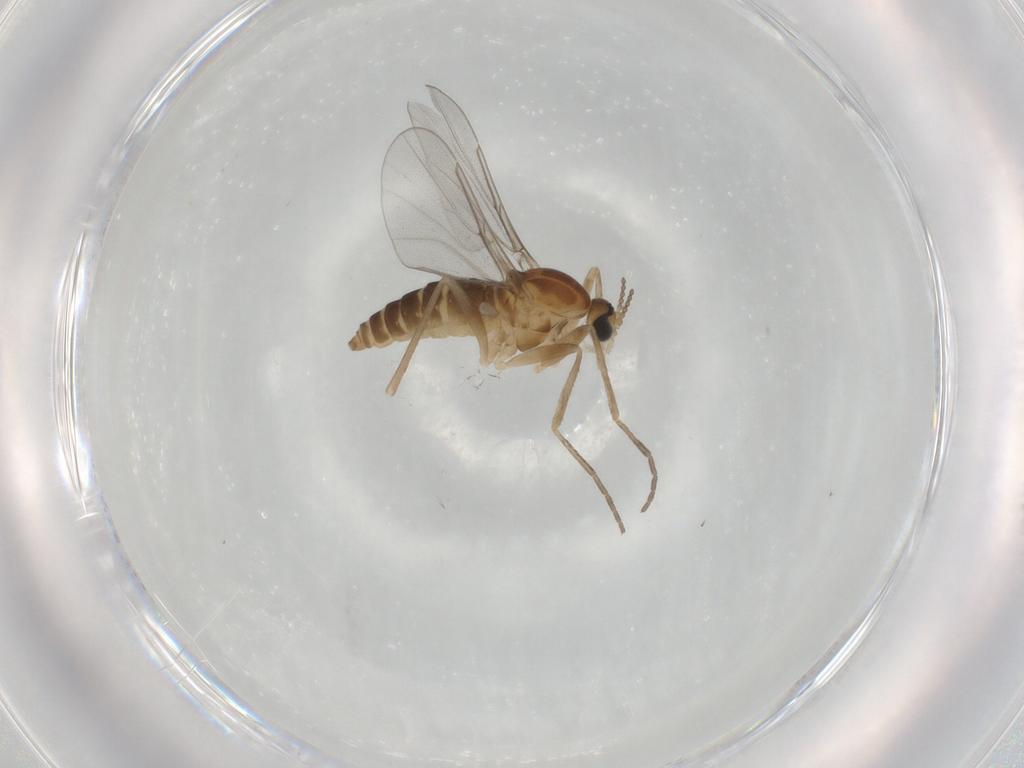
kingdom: Animalia
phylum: Arthropoda
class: Insecta
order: Diptera
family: Cecidomyiidae
